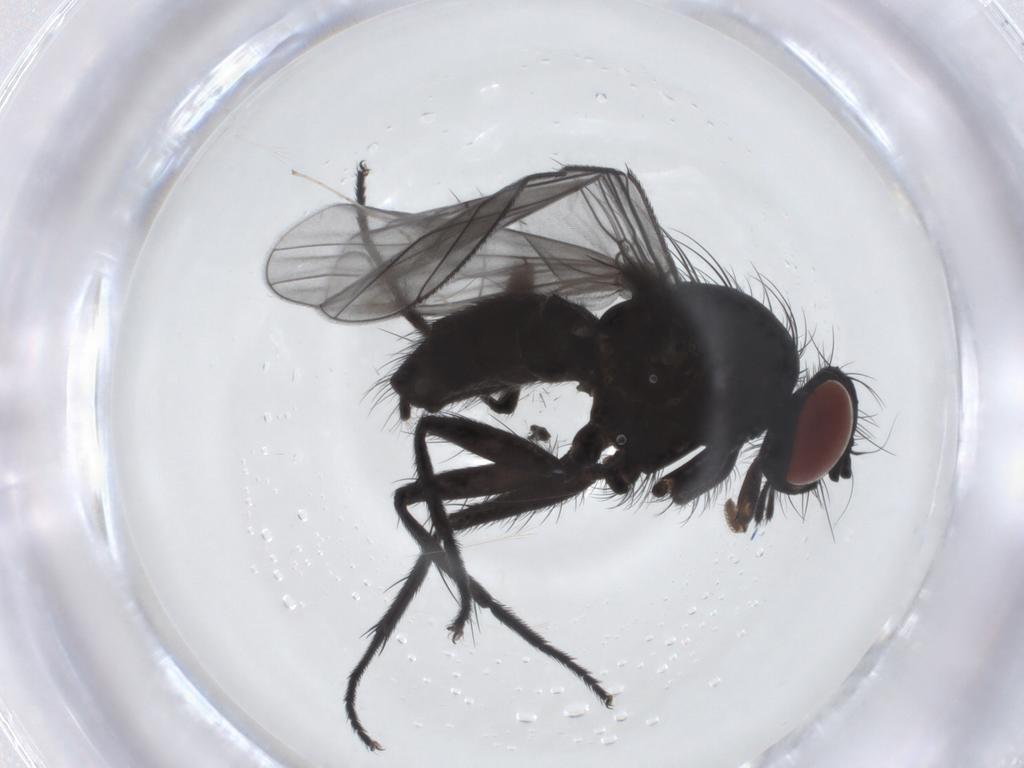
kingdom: Animalia
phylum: Arthropoda
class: Insecta
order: Diptera
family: Muscidae
